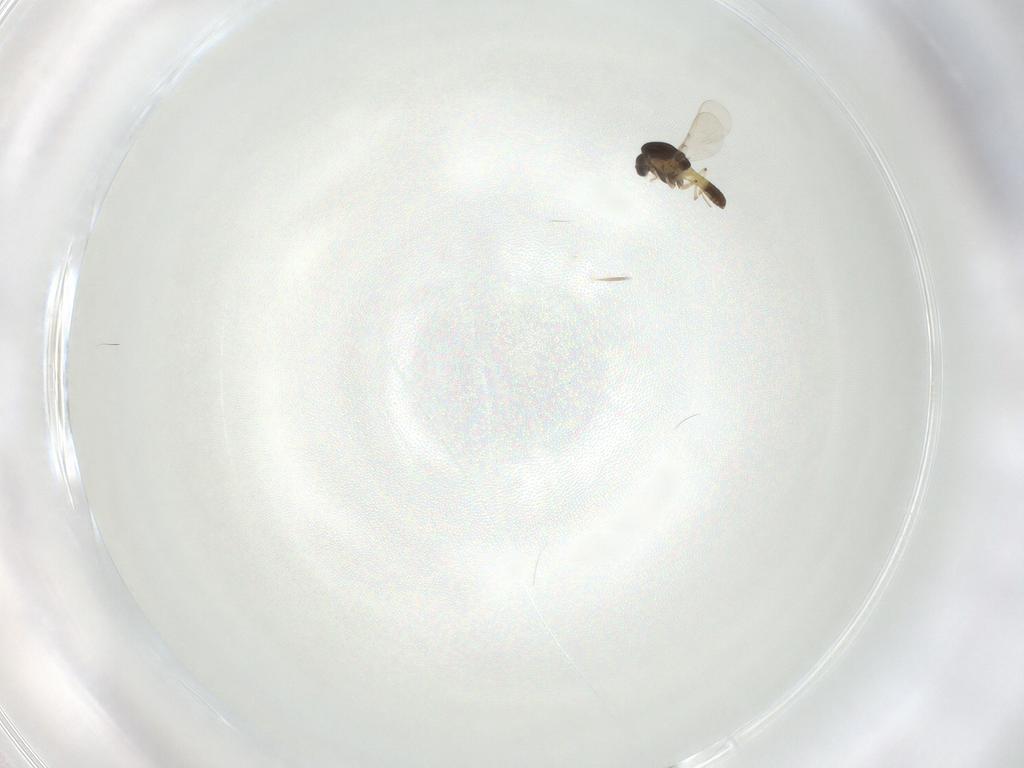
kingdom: Animalia
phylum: Arthropoda
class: Insecta
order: Diptera
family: Chironomidae
